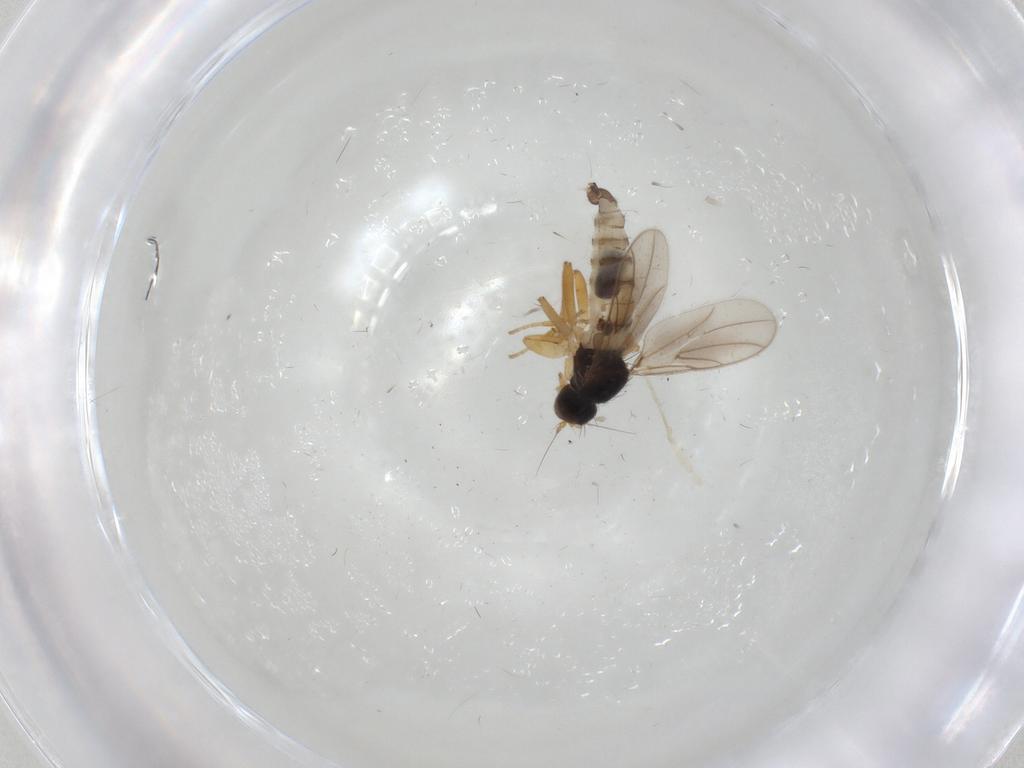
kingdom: Animalia
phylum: Arthropoda
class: Insecta
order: Diptera
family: Hybotidae
